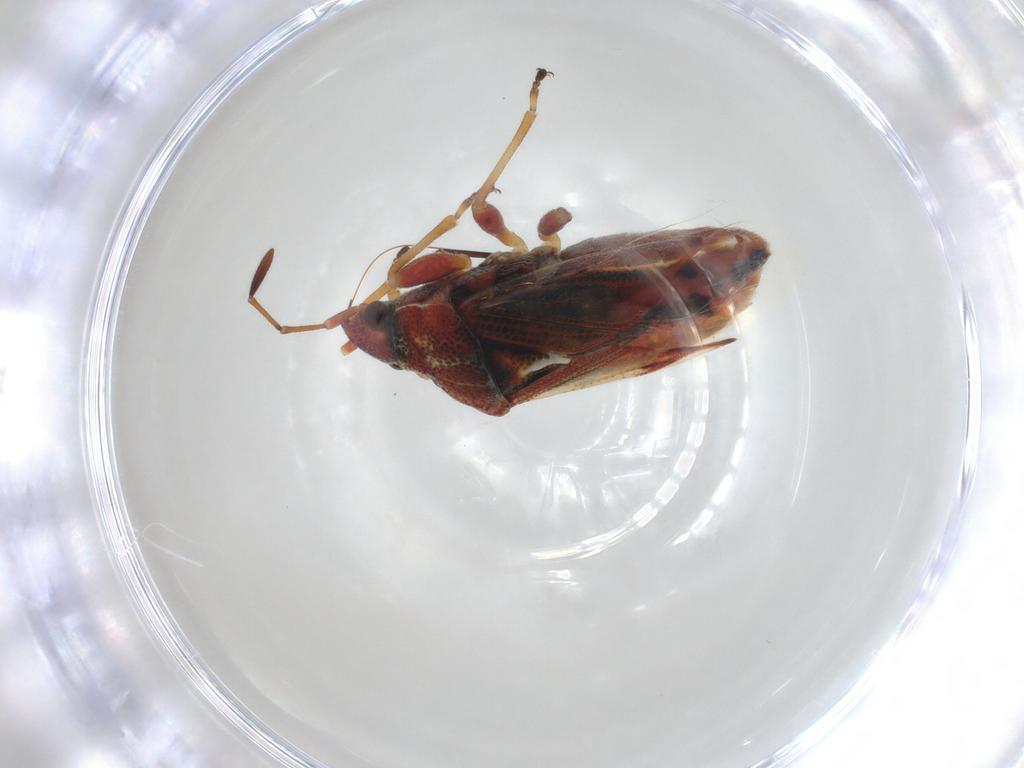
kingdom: Animalia
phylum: Arthropoda
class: Insecta
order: Hemiptera
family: Lygaeidae
